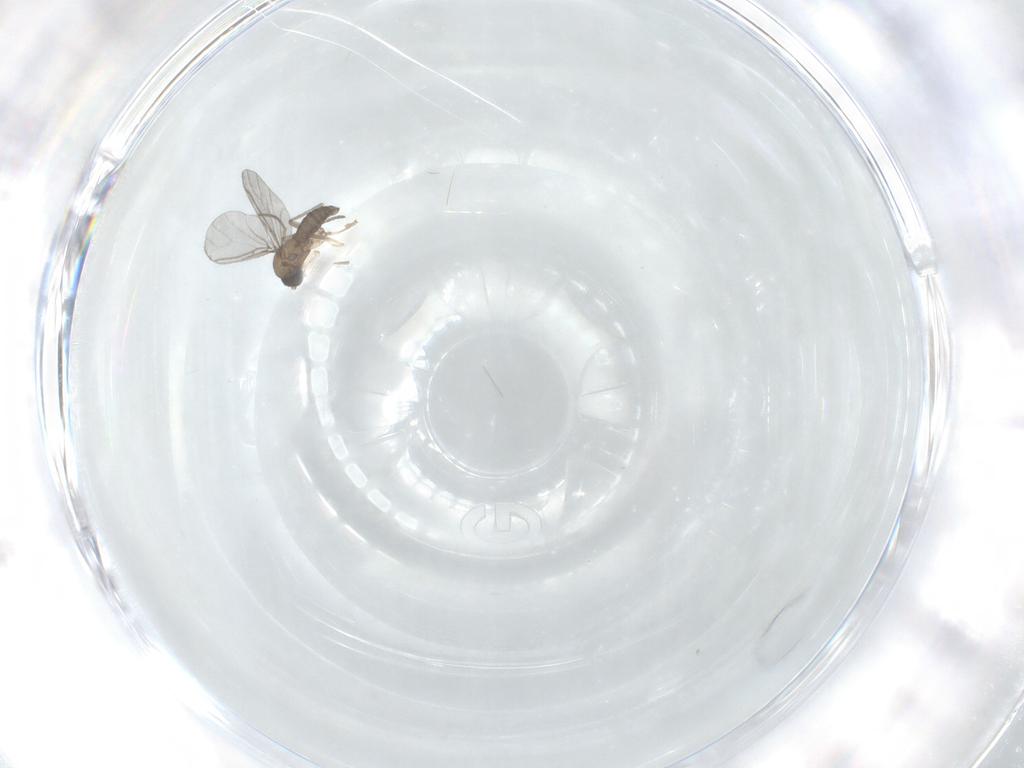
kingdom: Animalia
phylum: Arthropoda
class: Insecta
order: Diptera
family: Sciaridae
